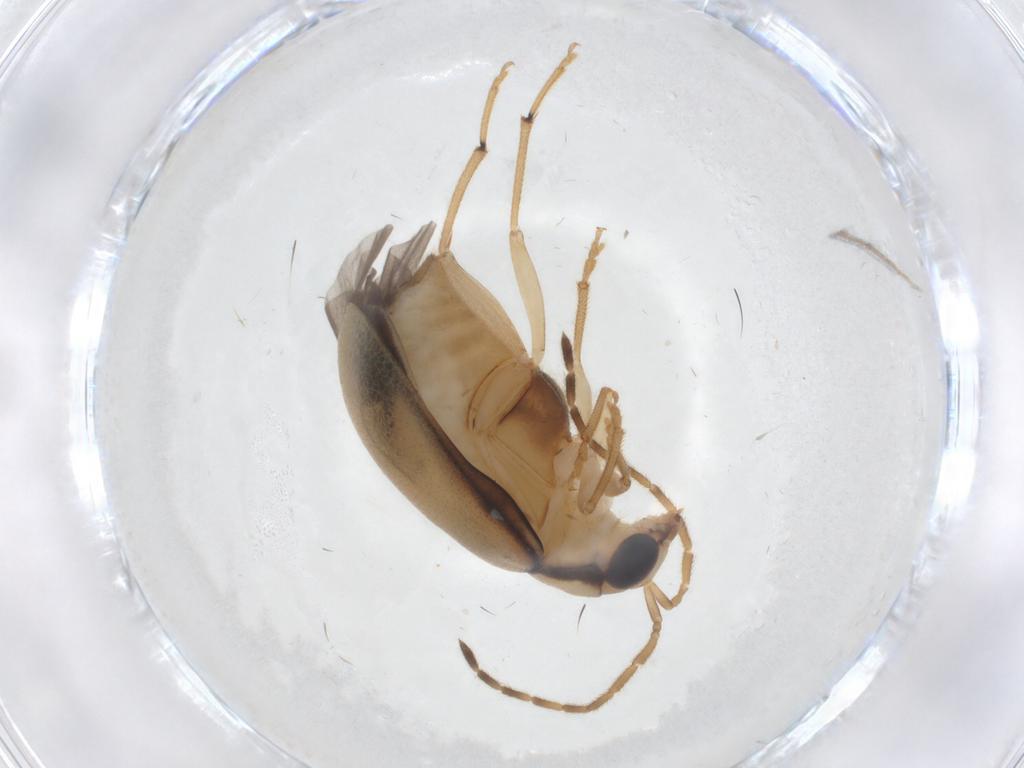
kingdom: Animalia
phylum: Arthropoda
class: Insecta
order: Coleoptera
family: Chrysomelidae
